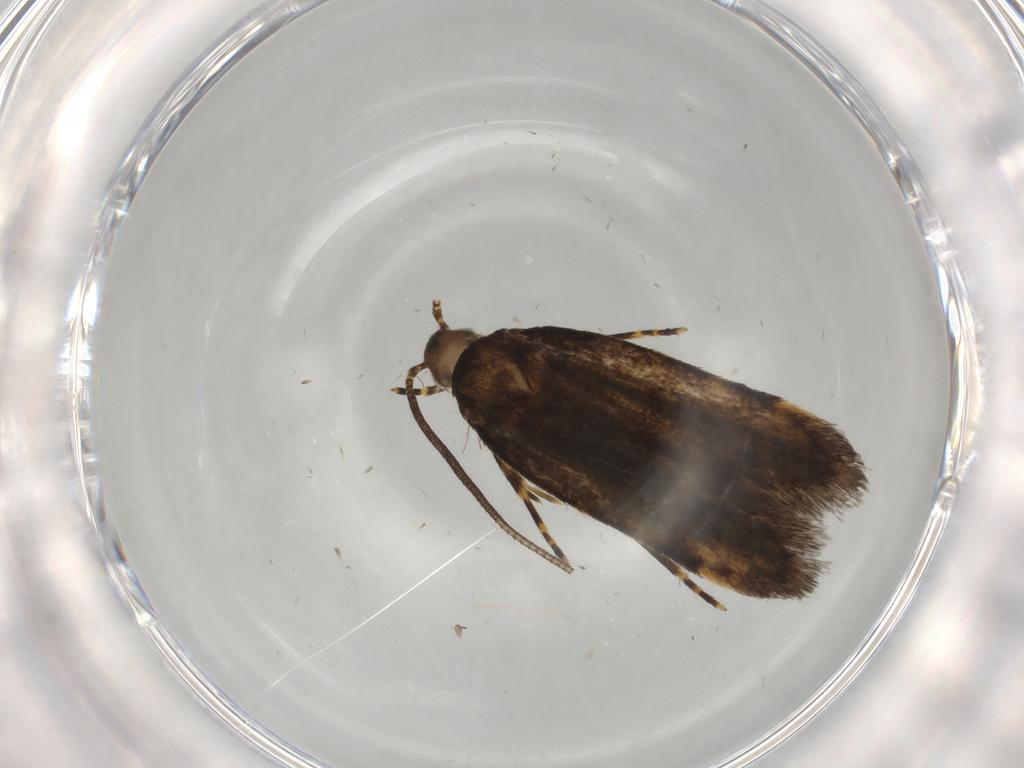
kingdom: Animalia
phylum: Arthropoda
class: Insecta
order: Lepidoptera
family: Oecophoridae
